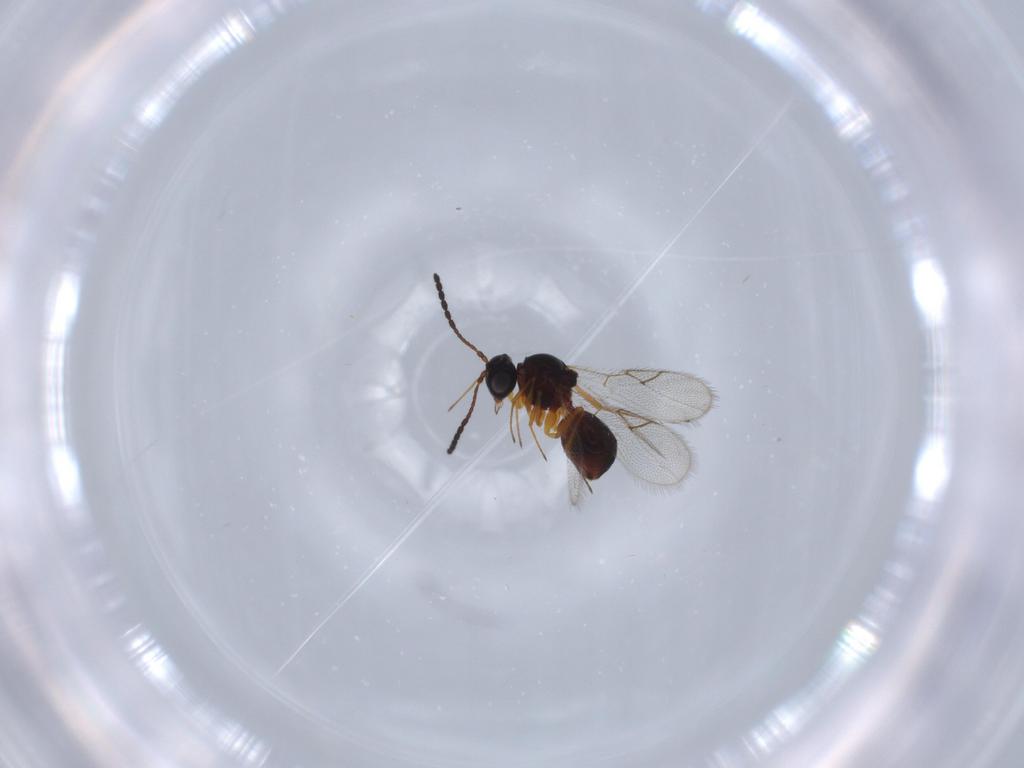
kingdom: Animalia
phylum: Arthropoda
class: Insecta
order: Hymenoptera
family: Figitidae
